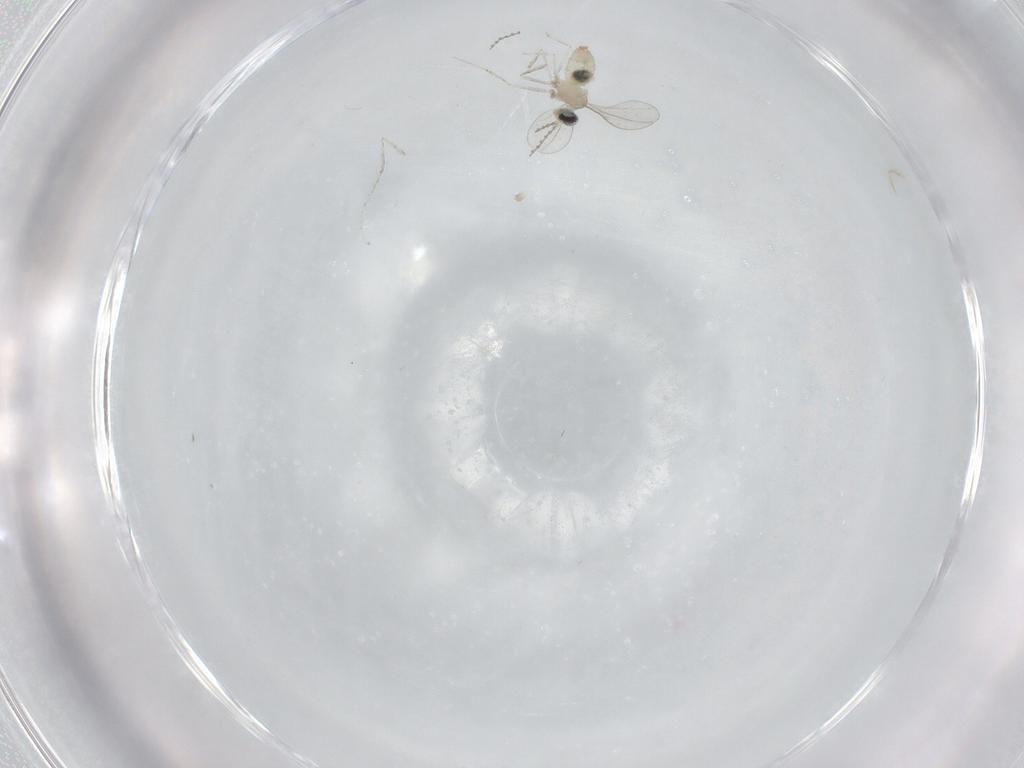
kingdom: Animalia
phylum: Arthropoda
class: Insecta
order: Diptera
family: Cecidomyiidae
